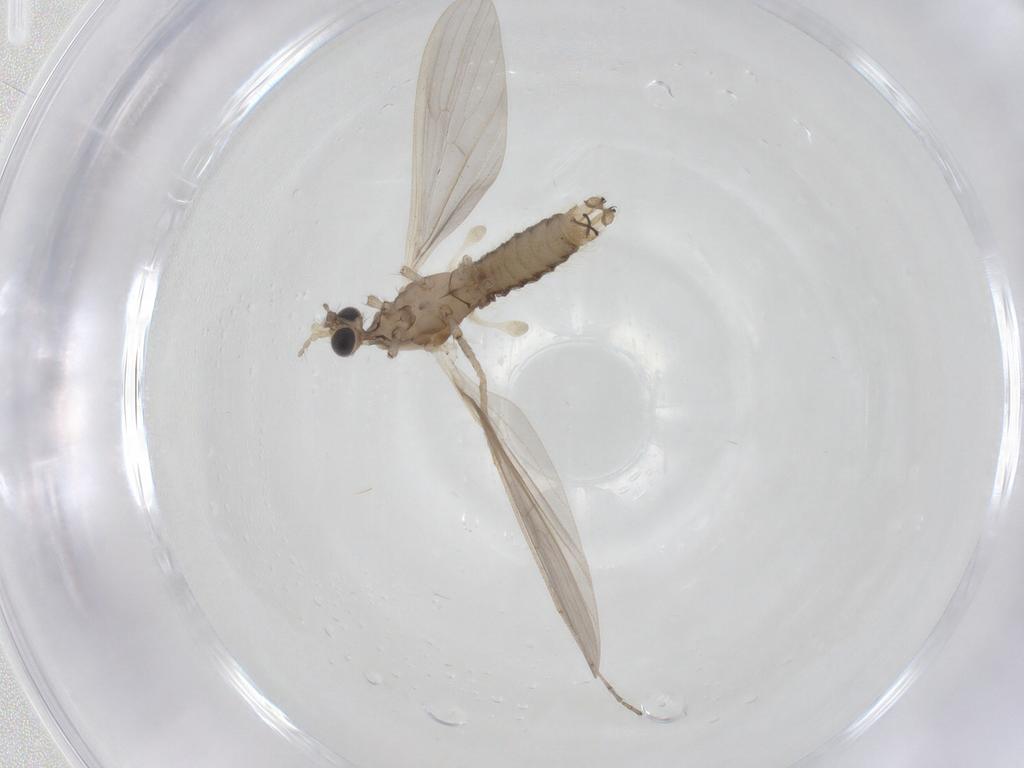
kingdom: Animalia
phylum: Arthropoda
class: Insecta
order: Diptera
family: Limoniidae
